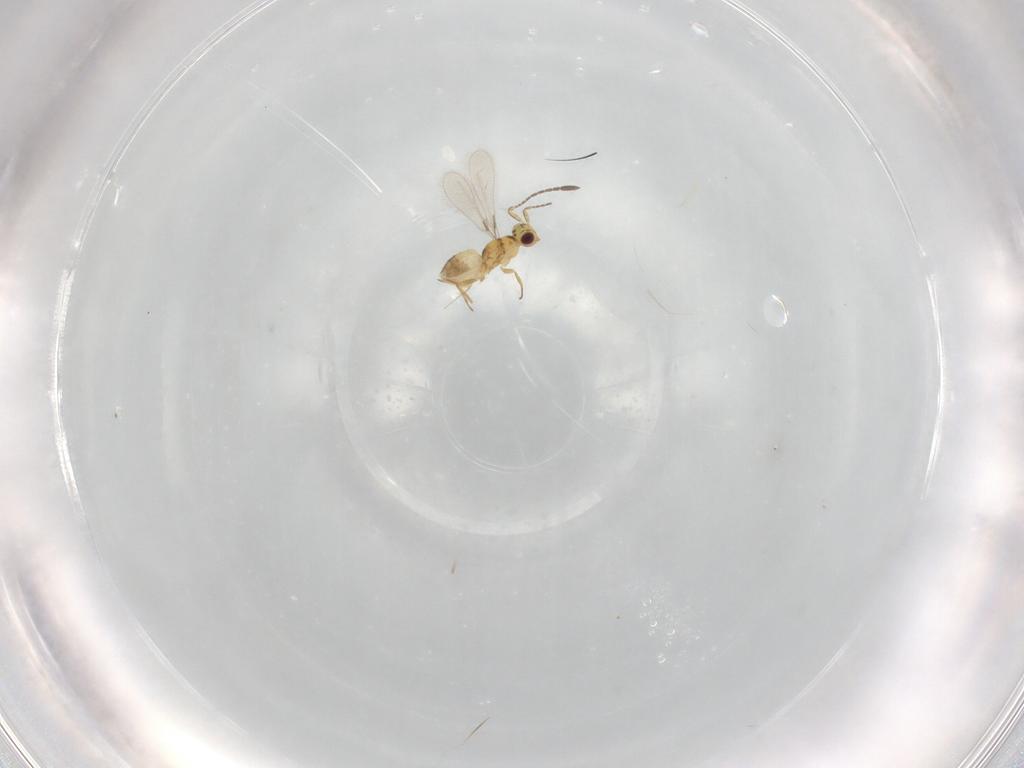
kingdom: Animalia
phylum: Arthropoda
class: Insecta
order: Hymenoptera
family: Mymaridae
